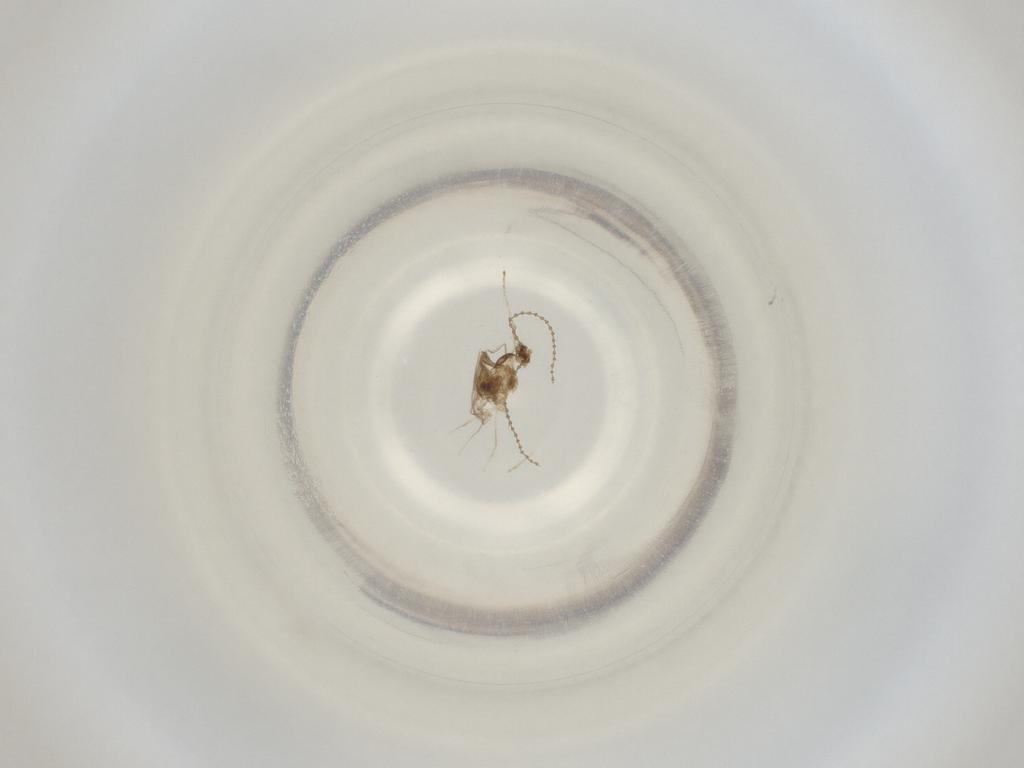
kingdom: Animalia
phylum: Arthropoda
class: Insecta
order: Diptera
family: Cecidomyiidae
